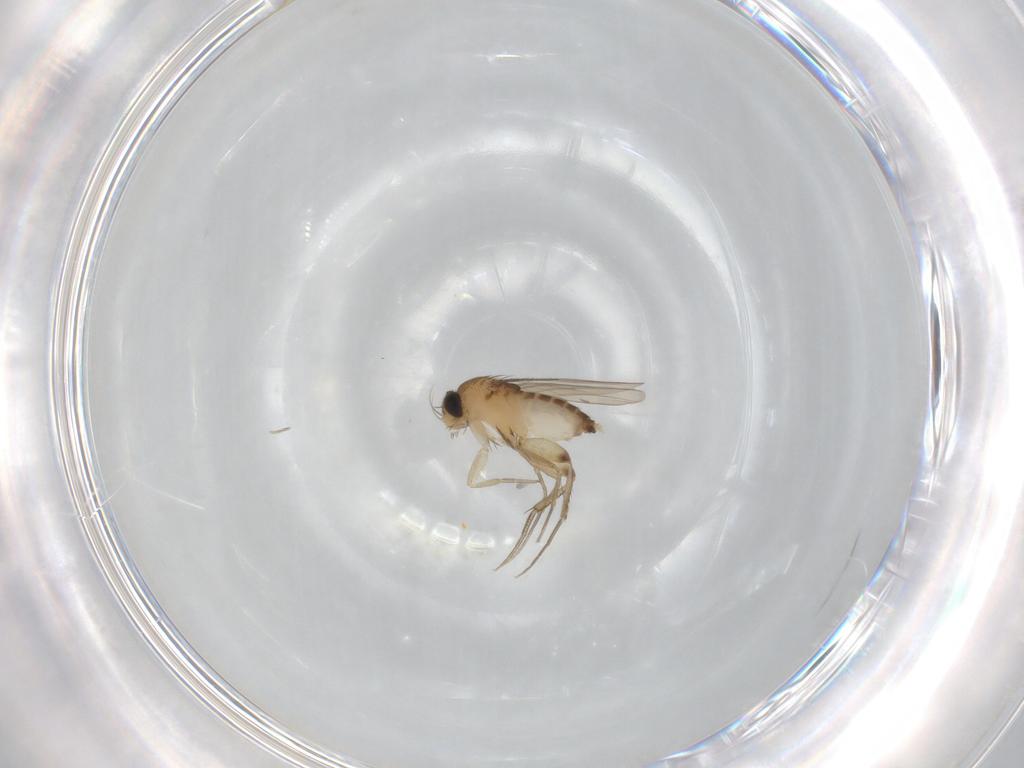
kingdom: Animalia
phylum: Arthropoda
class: Insecta
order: Diptera
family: Phoridae
